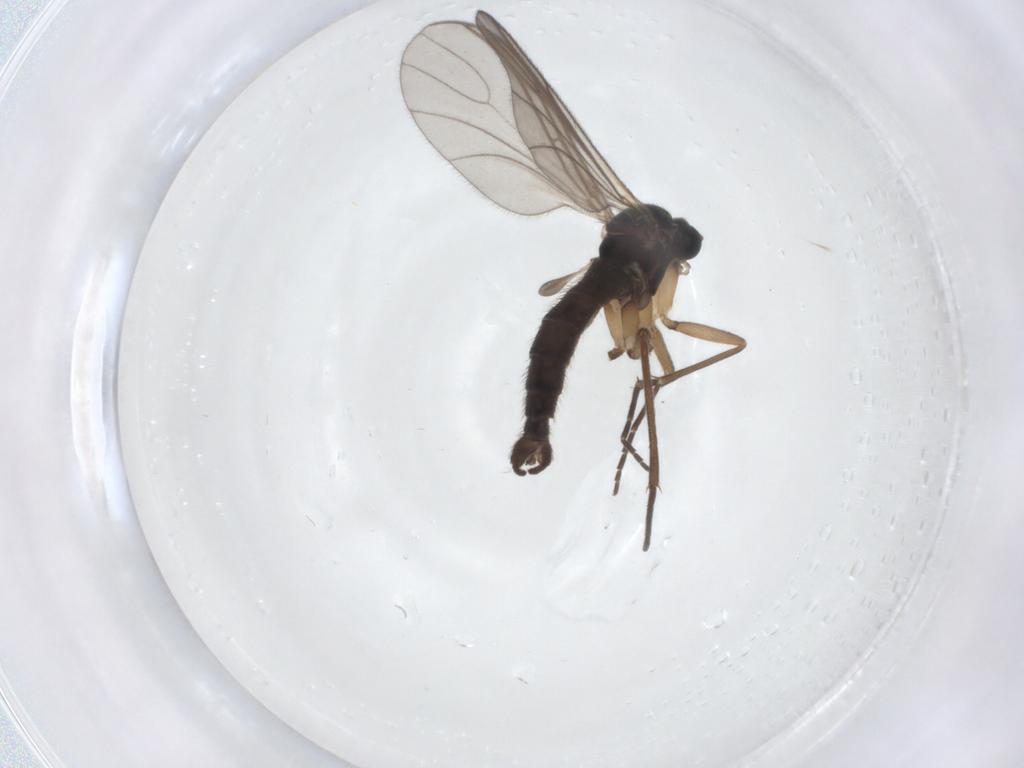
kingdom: Animalia
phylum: Arthropoda
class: Insecta
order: Diptera
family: Sciaridae
